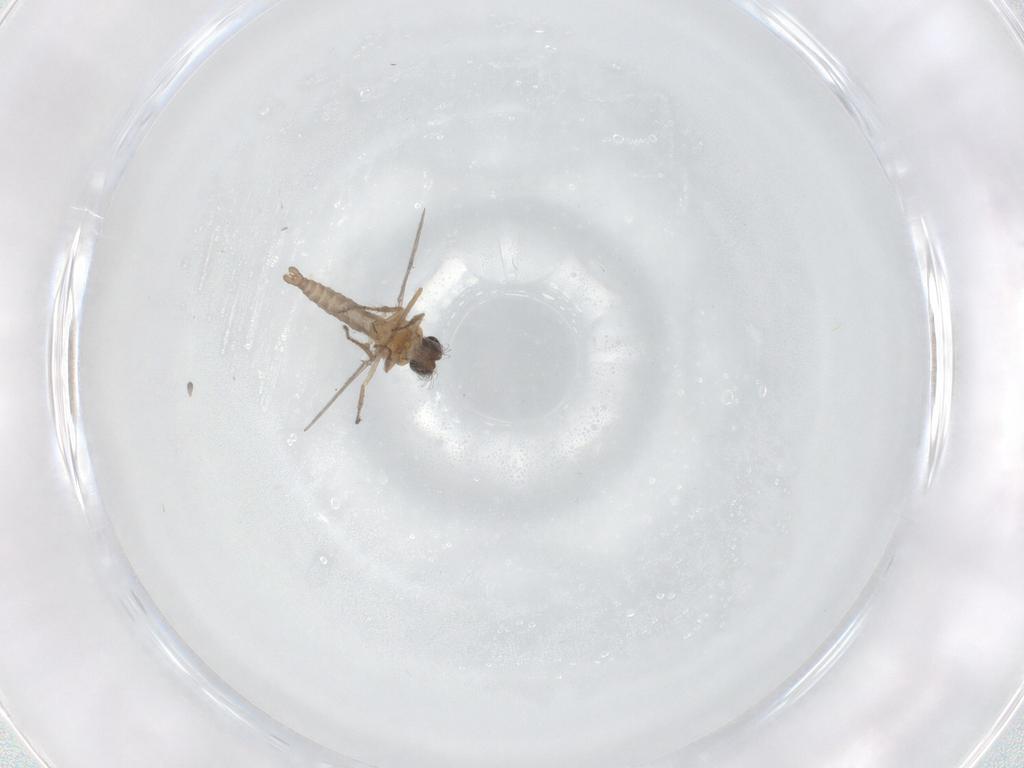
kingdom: Animalia
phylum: Arthropoda
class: Insecta
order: Diptera
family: Ceratopogonidae
